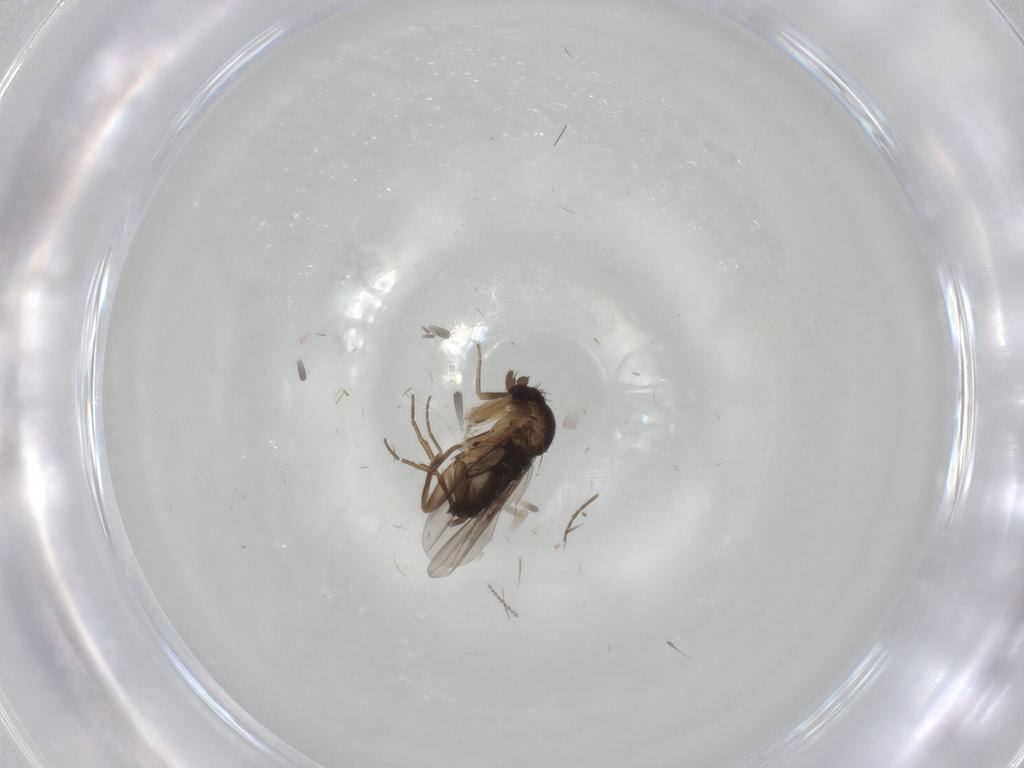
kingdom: Animalia
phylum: Arthropoda
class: Insecta
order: Diptera
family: Phoridae
